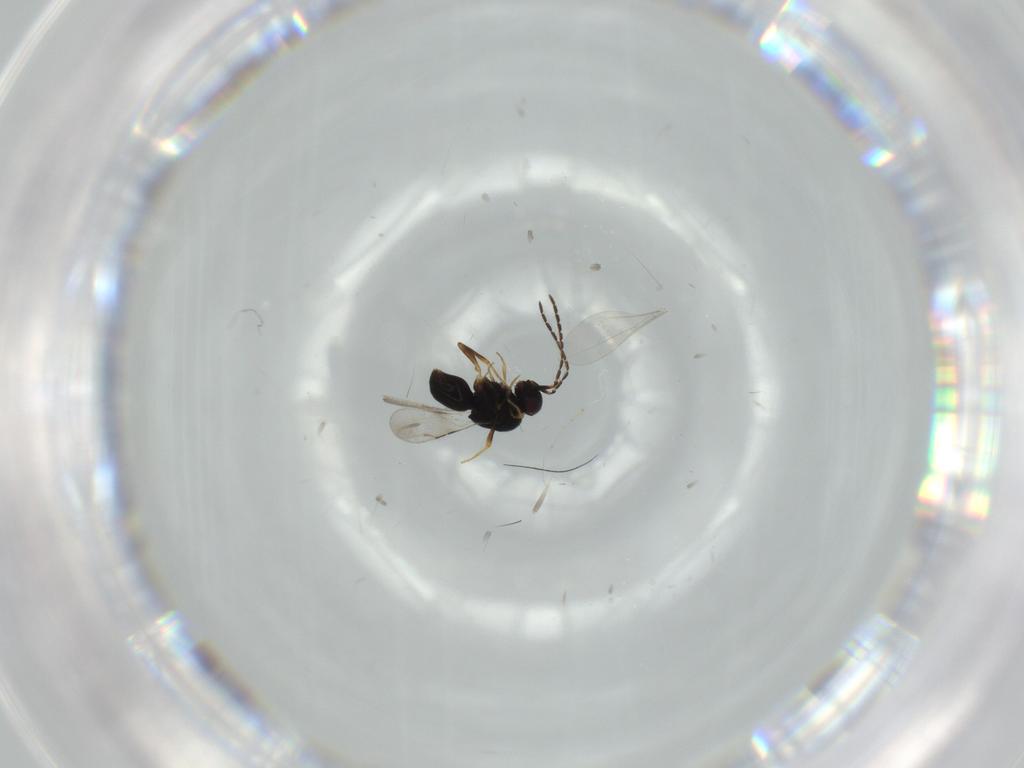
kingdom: Animalia
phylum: Arthropoda
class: Insecta
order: Hymenoptera
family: Ceraphronidae
